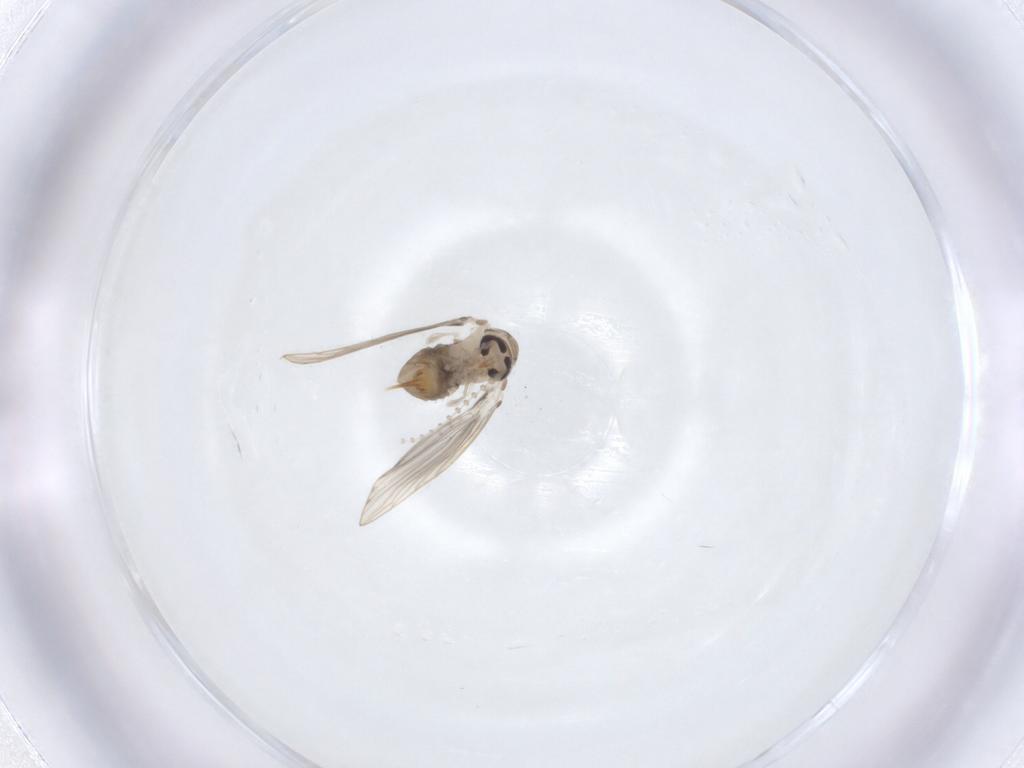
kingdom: Animalia
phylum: Arthropoda
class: Insecta
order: Diptera
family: Psychodidae
